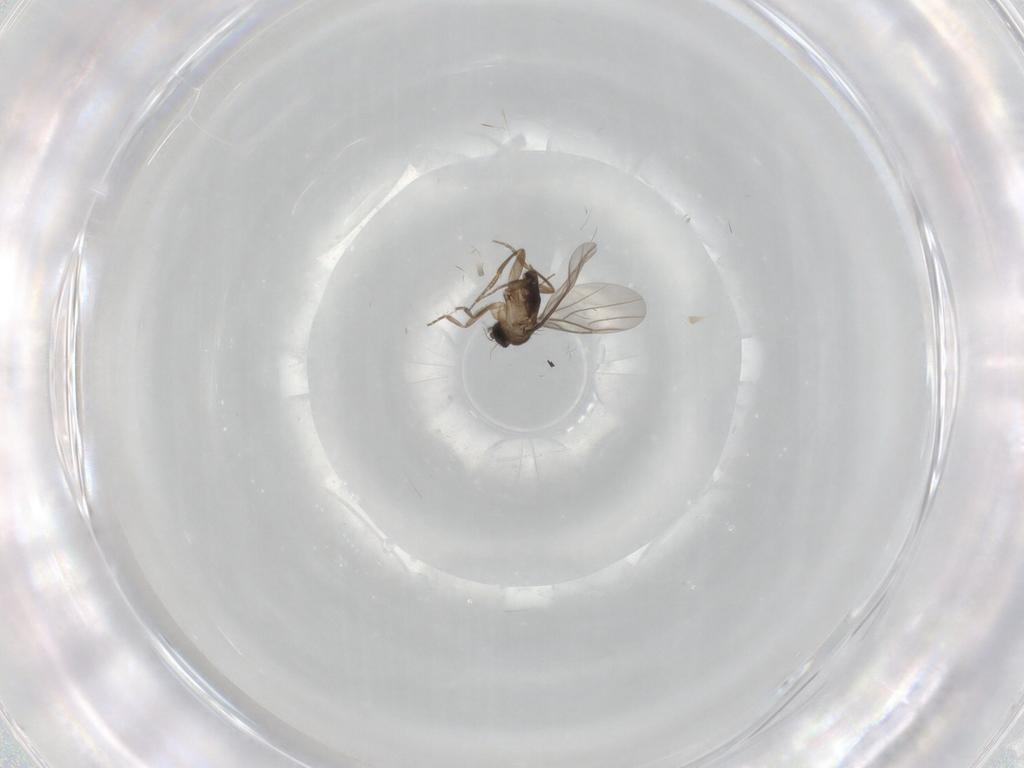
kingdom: Animalia
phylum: Arthropoda
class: Insecta
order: Diptera
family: Phoridae
